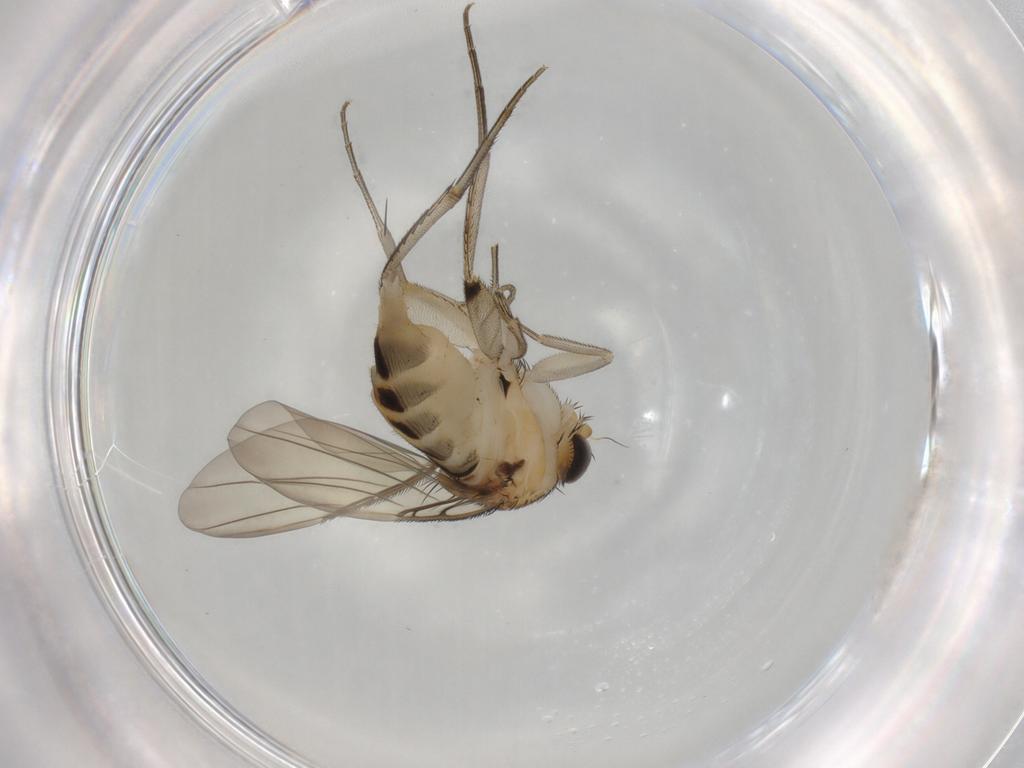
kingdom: Animalia
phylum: Arthropoda
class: Insecta
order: Diptera
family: Phoridae
